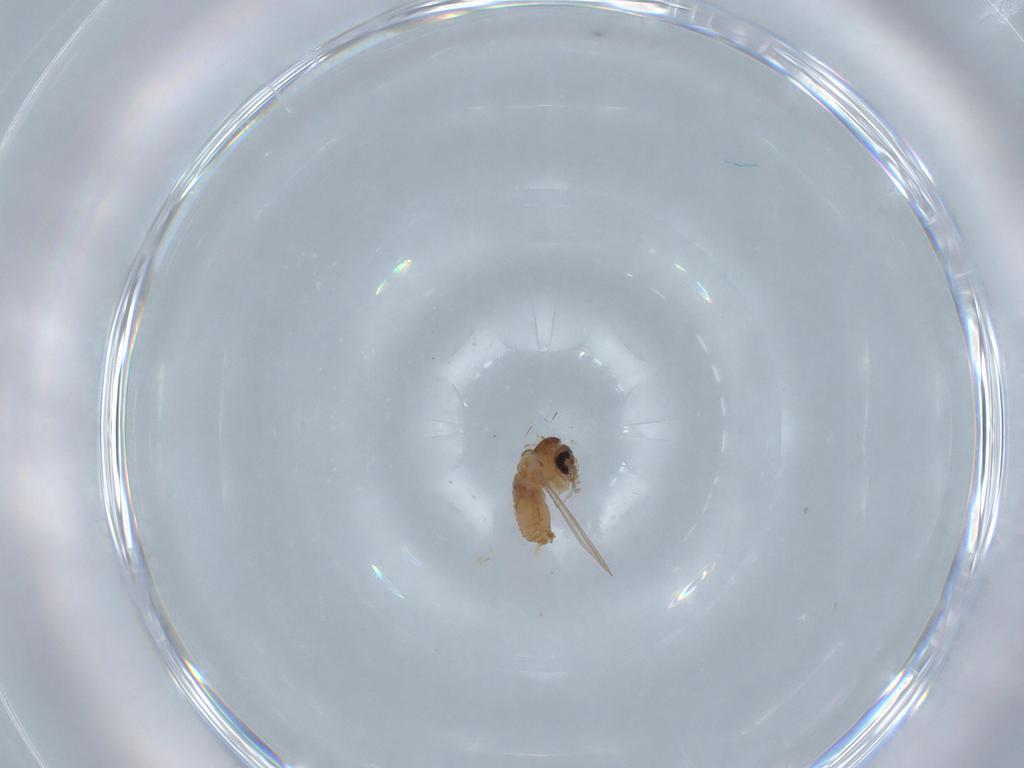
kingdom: Animalia
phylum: Arthropoda
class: Insecta
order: Diptera
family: Psychodidae
